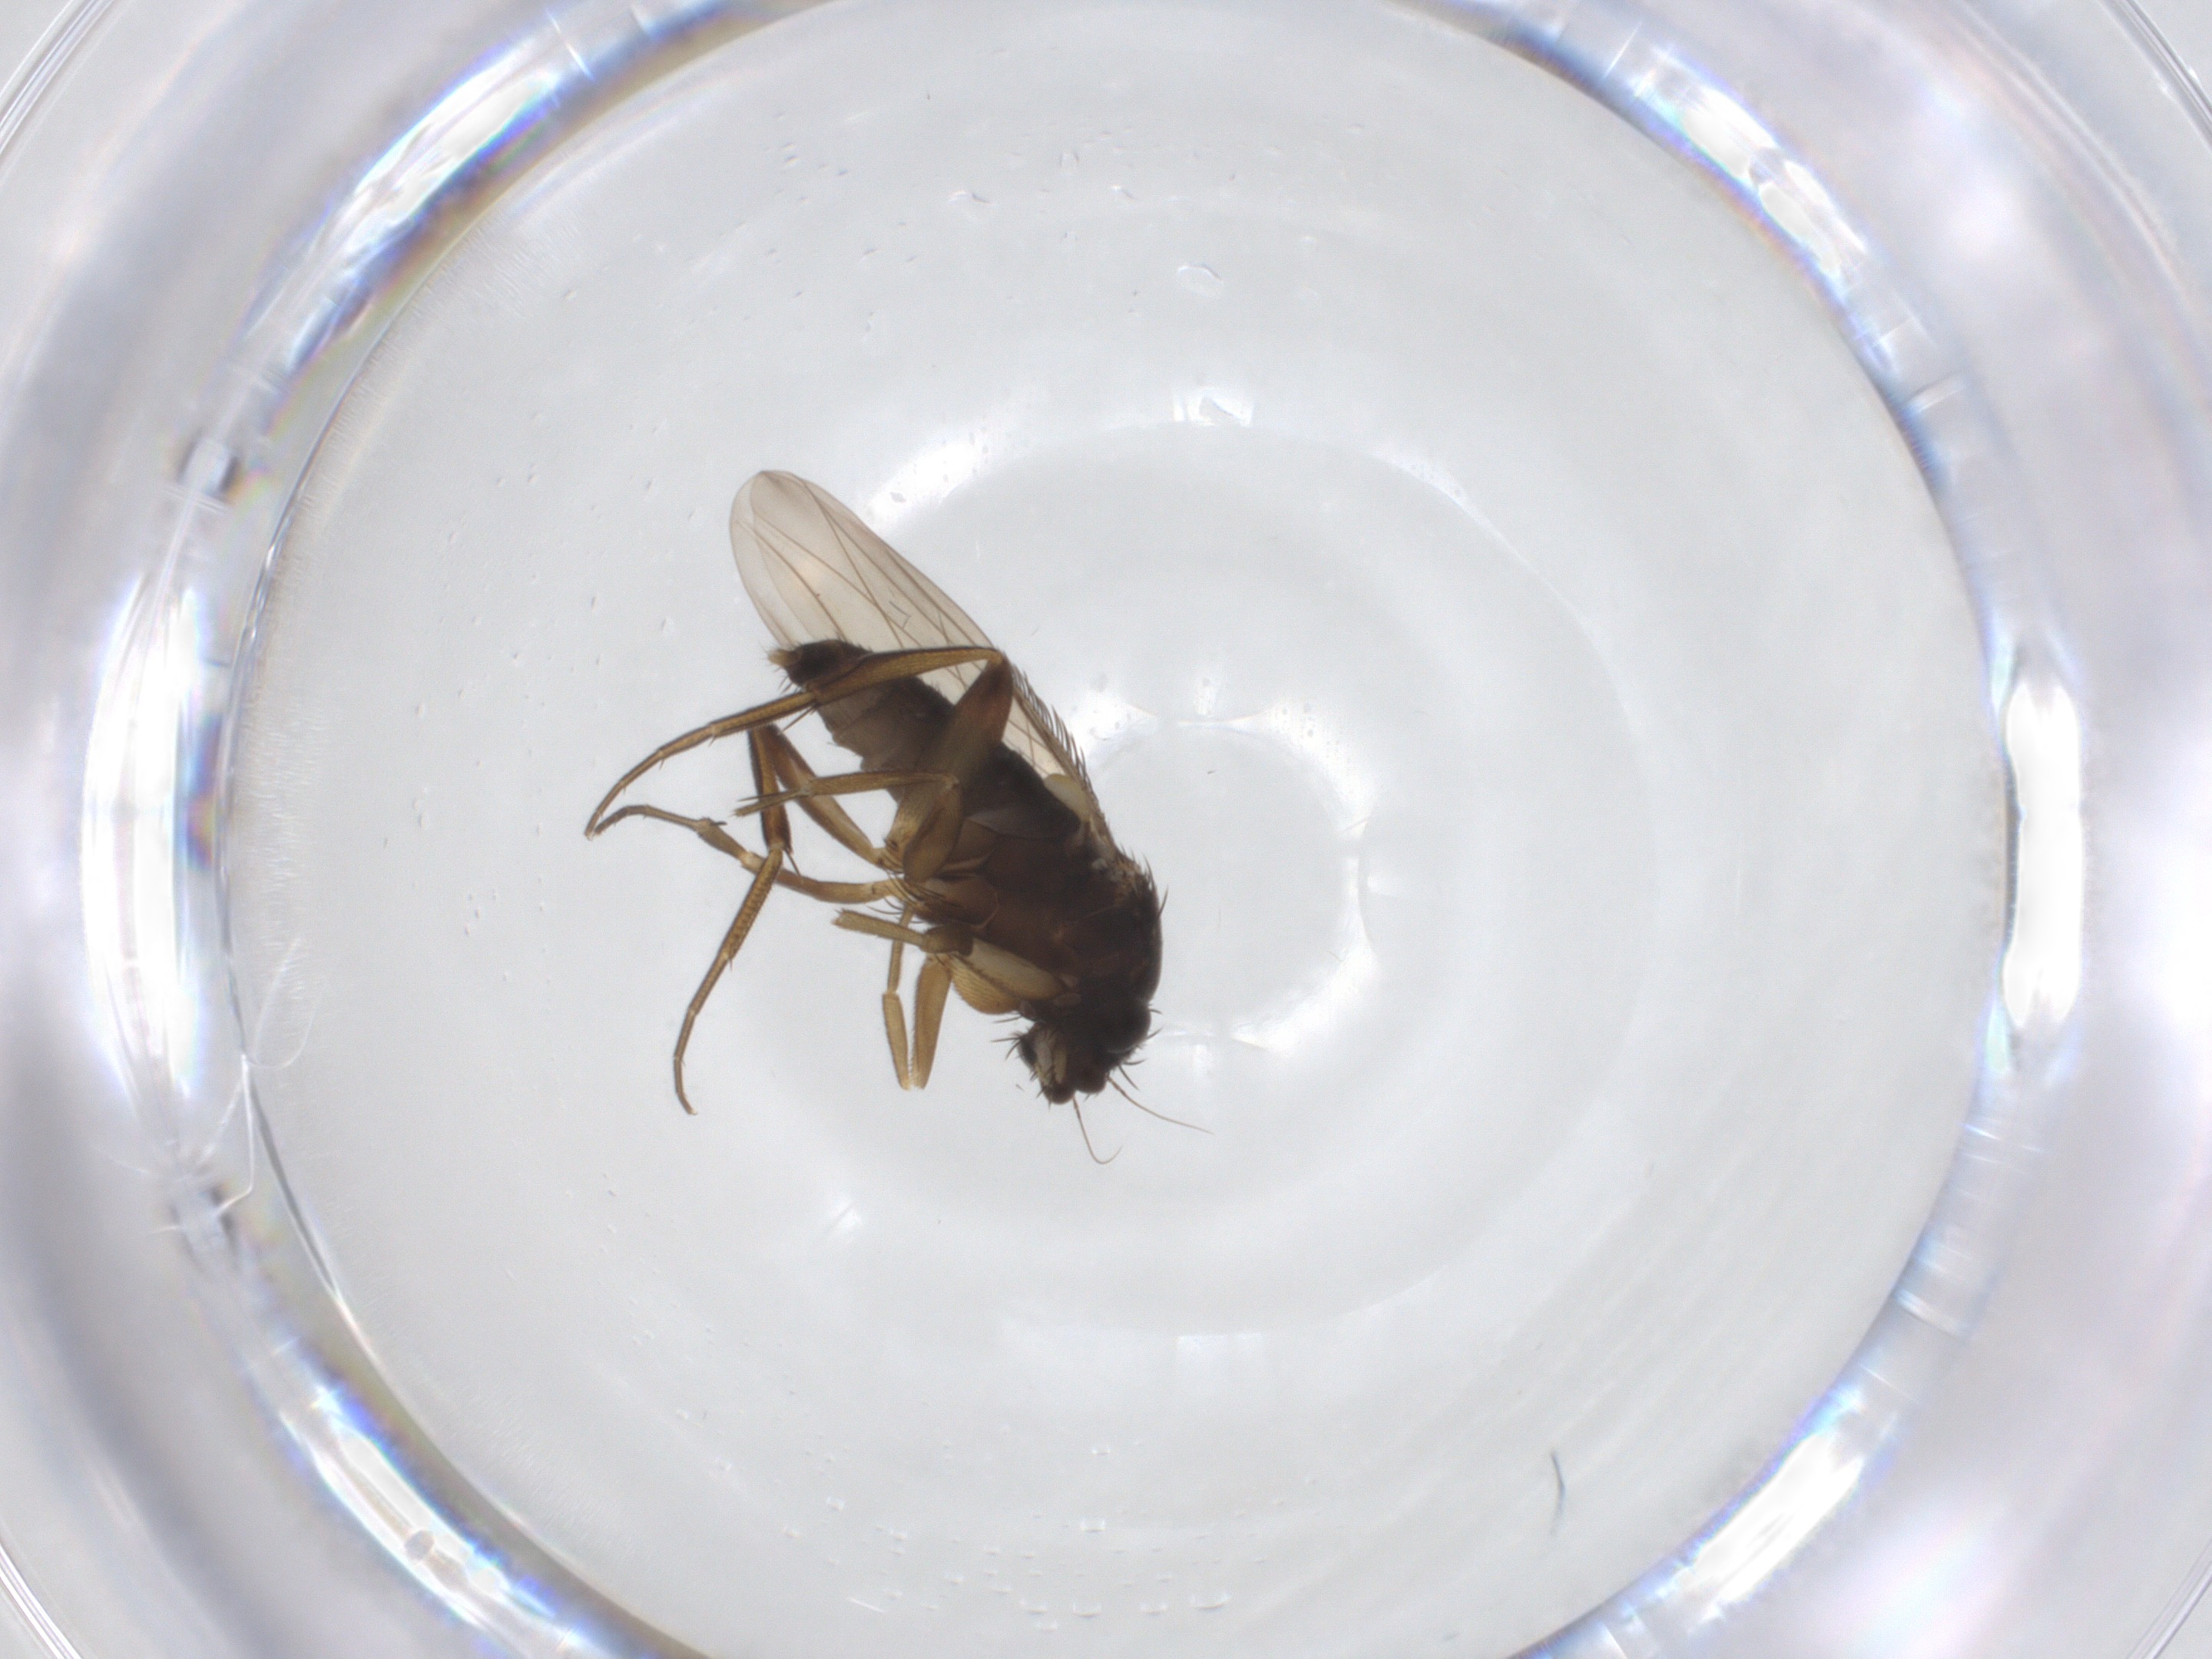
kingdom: Animalia
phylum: Arthropoda
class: Insecta
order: Diptera
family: Phoridae
